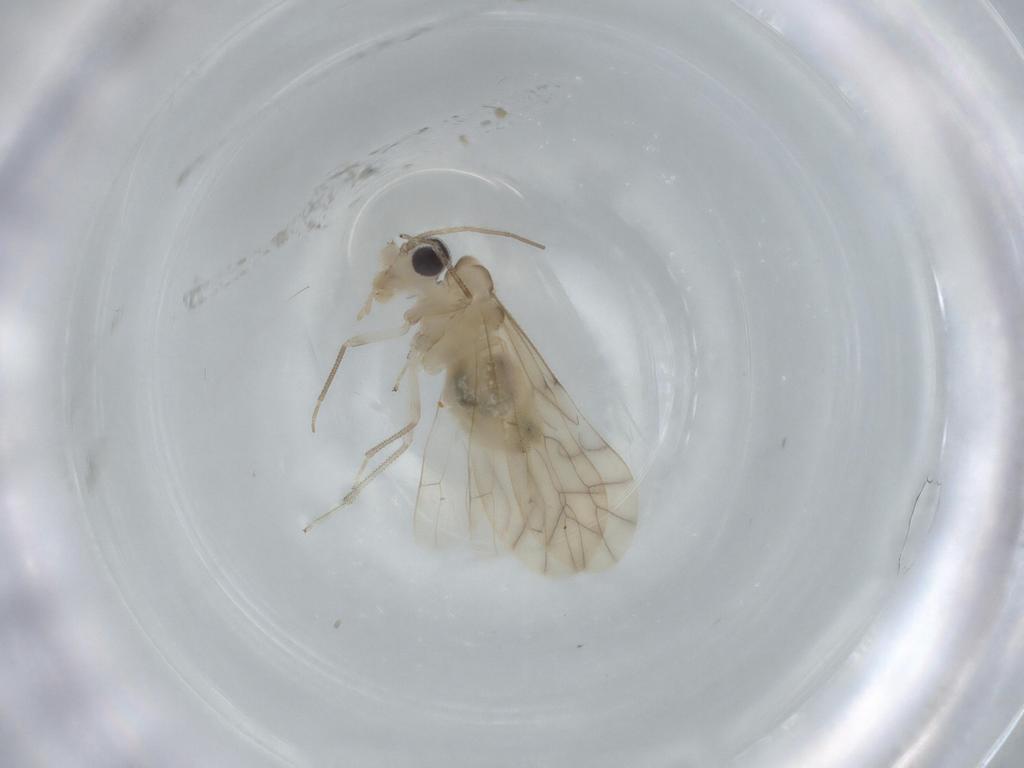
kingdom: Animalia
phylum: Arthropoda
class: Insecta
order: Psocodea
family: Caeciliusidae
